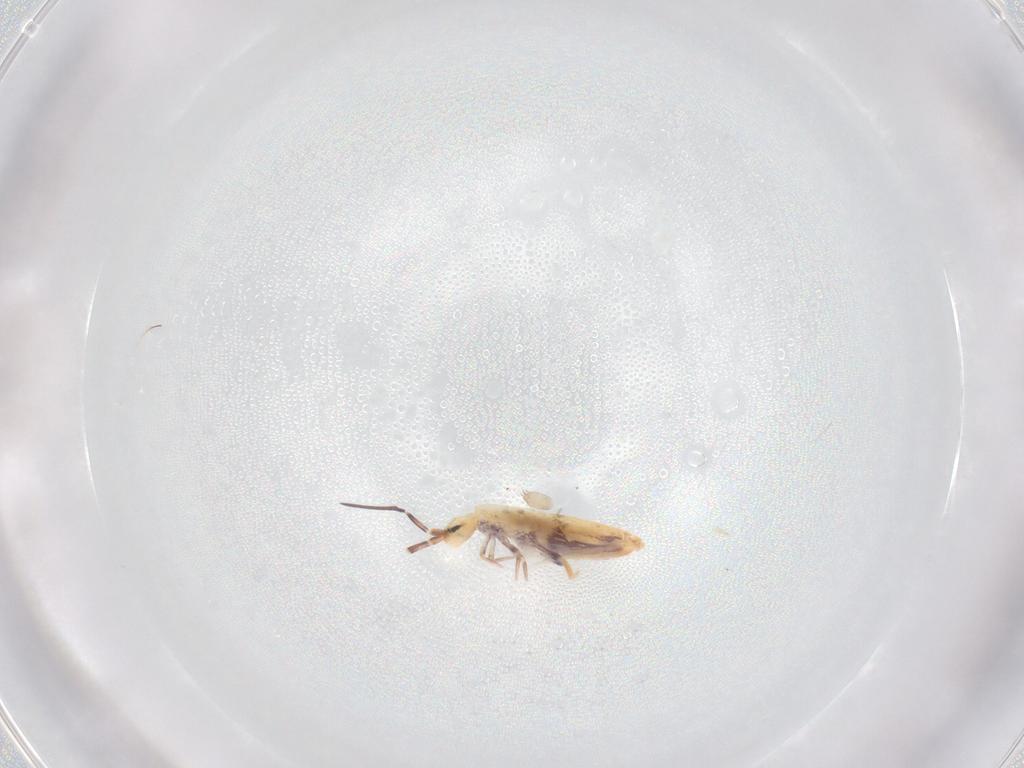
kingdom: Animalia
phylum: Arthropoda
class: Collembola
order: Poduromorpha
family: Hypogastruridae
